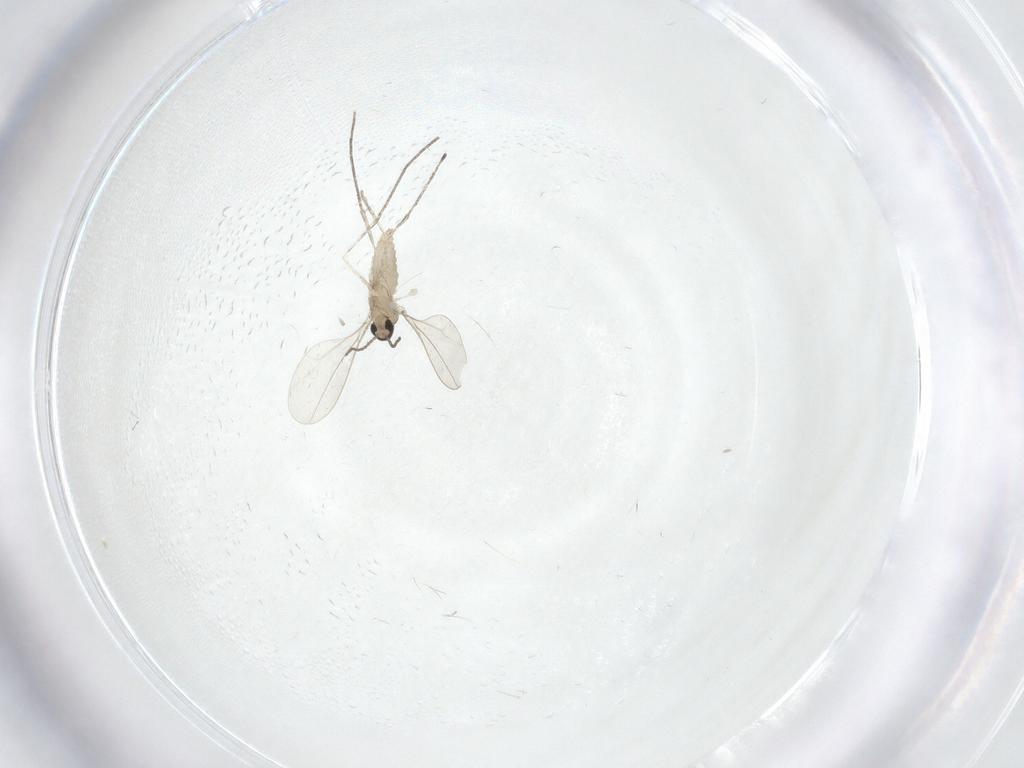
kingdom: Animalia
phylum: Arthropoda
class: Insecta
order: Diptera
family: Cecidomyiidae
